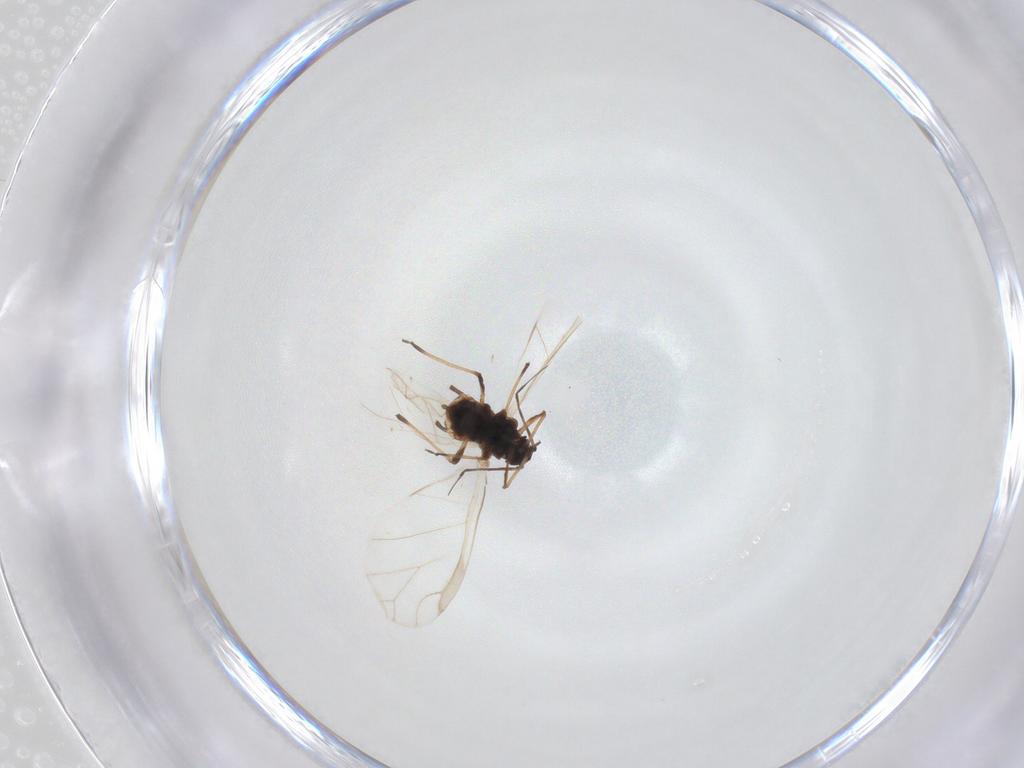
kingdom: Animalia
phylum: Arthropoda
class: Insecta
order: Hemiptera
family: Aphididae
